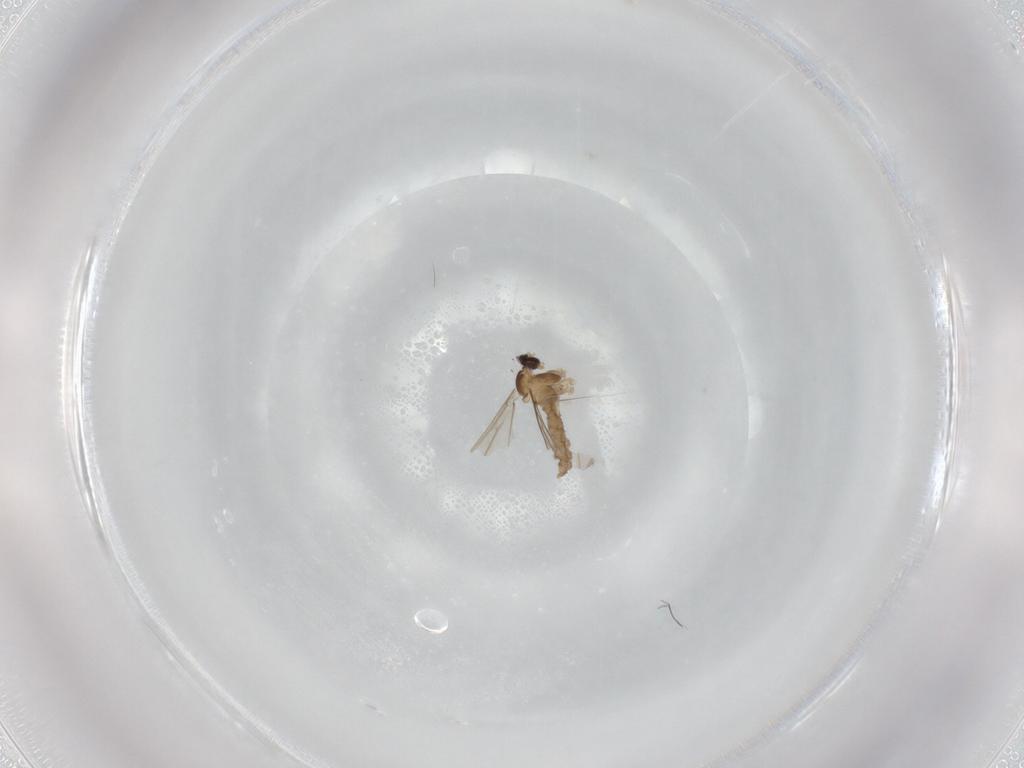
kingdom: Animalia
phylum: Arthropoda
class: Insecta
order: Diptera
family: Cecidomyiidae
